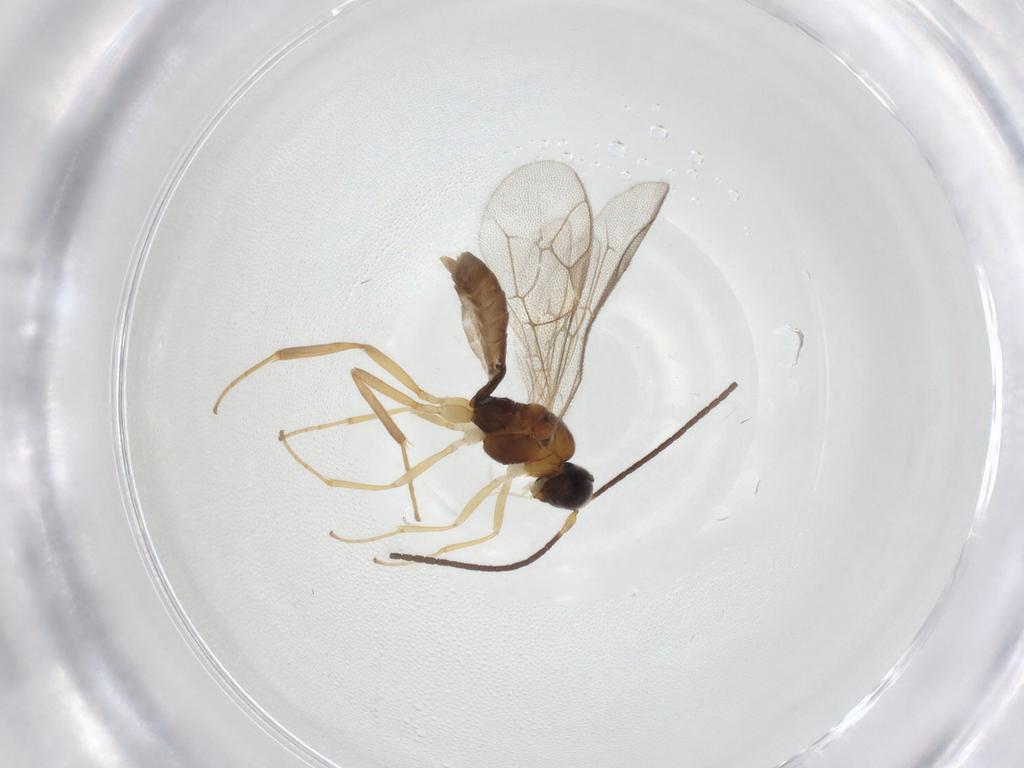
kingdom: Animalia
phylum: Arthropoda
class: Insecta
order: Hymenoptera
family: Ichneumonidae
